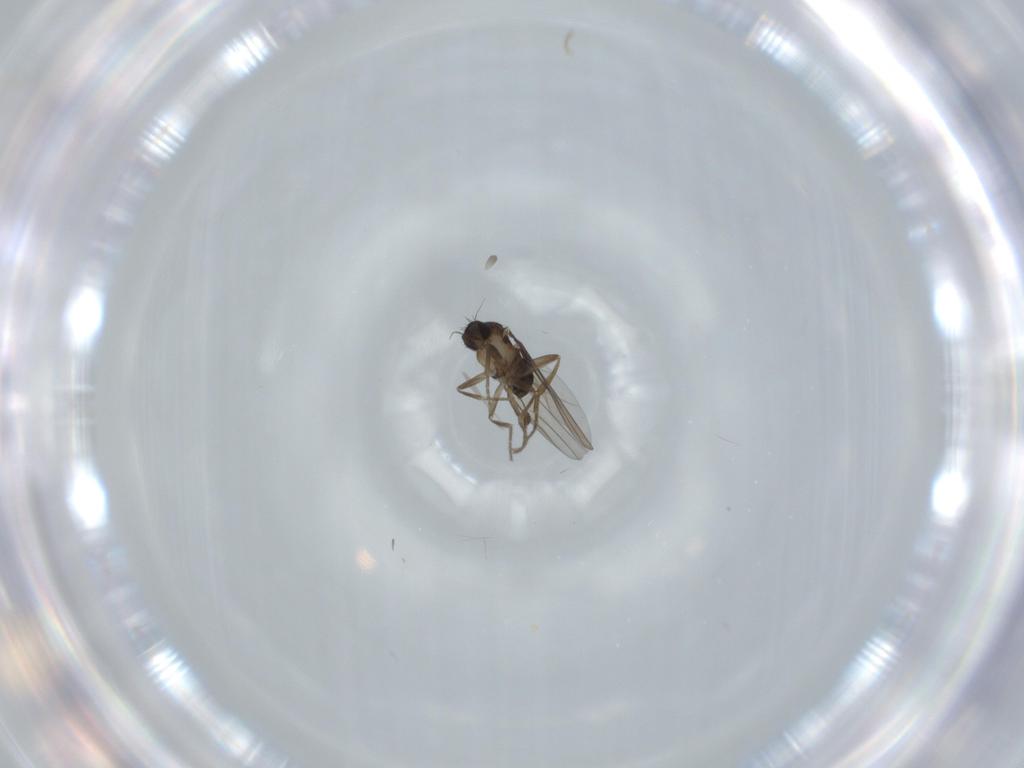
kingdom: Animalia
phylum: Arthropoda
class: Insecta
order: Diptera
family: Phoridae
